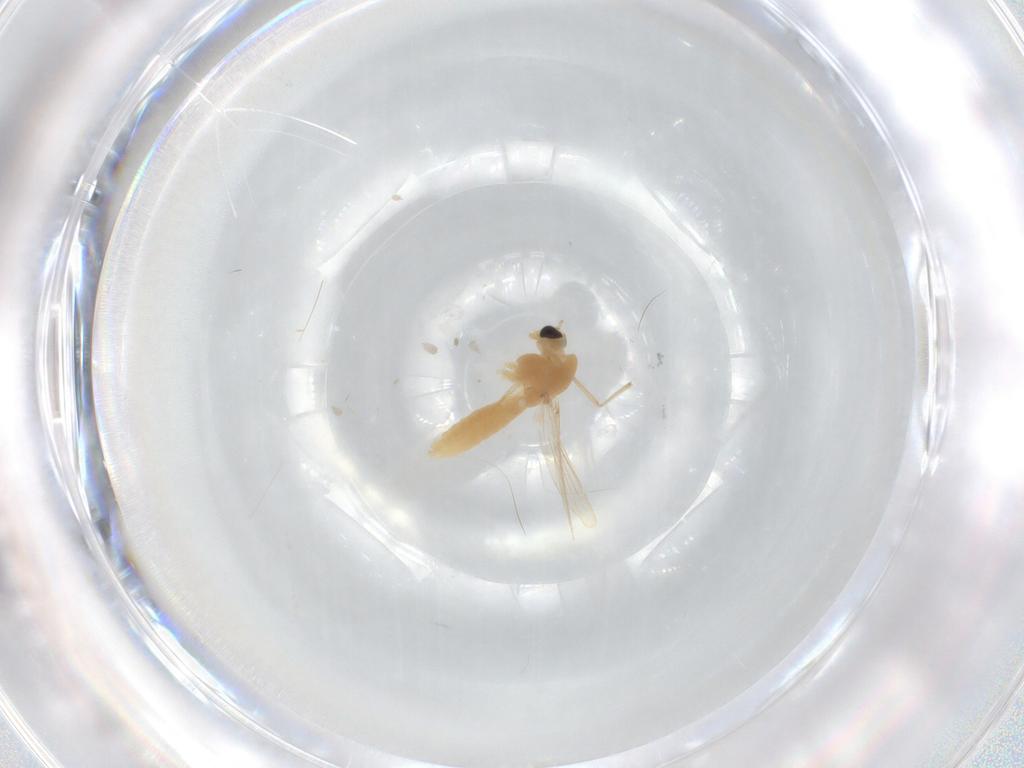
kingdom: Animalia
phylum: Arthropoda
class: Insecta
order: Diptera
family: Chironomidae
